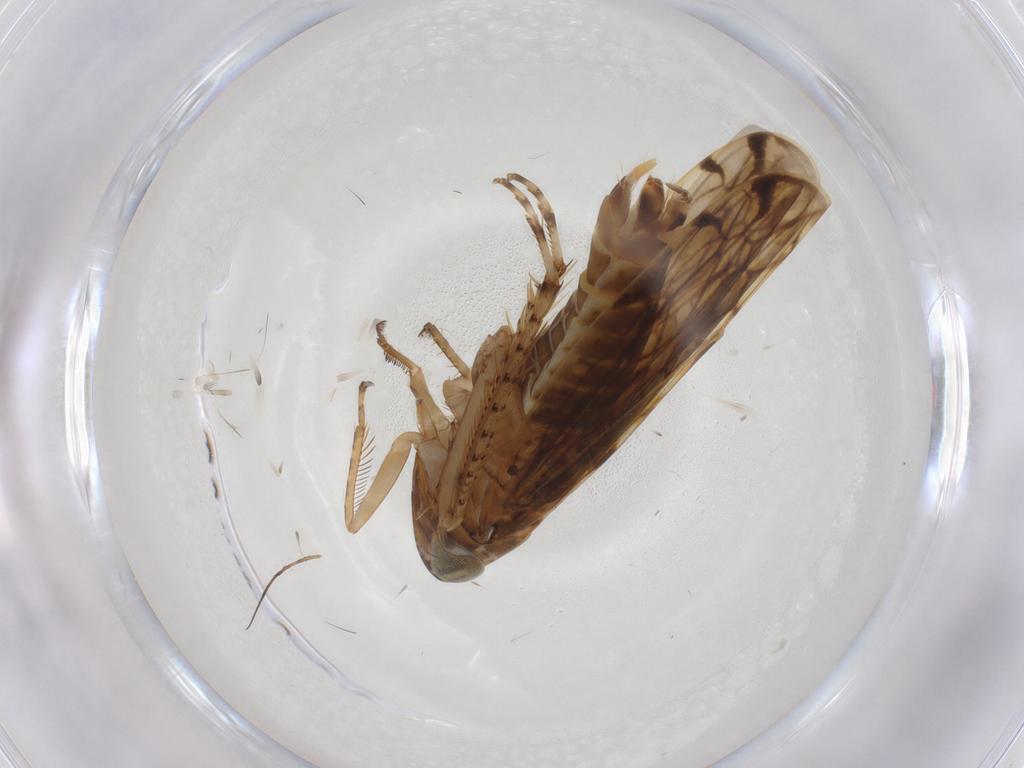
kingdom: Animalia
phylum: Arthropoda
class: Insecta
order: Hemiptera
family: Cicadellidae
